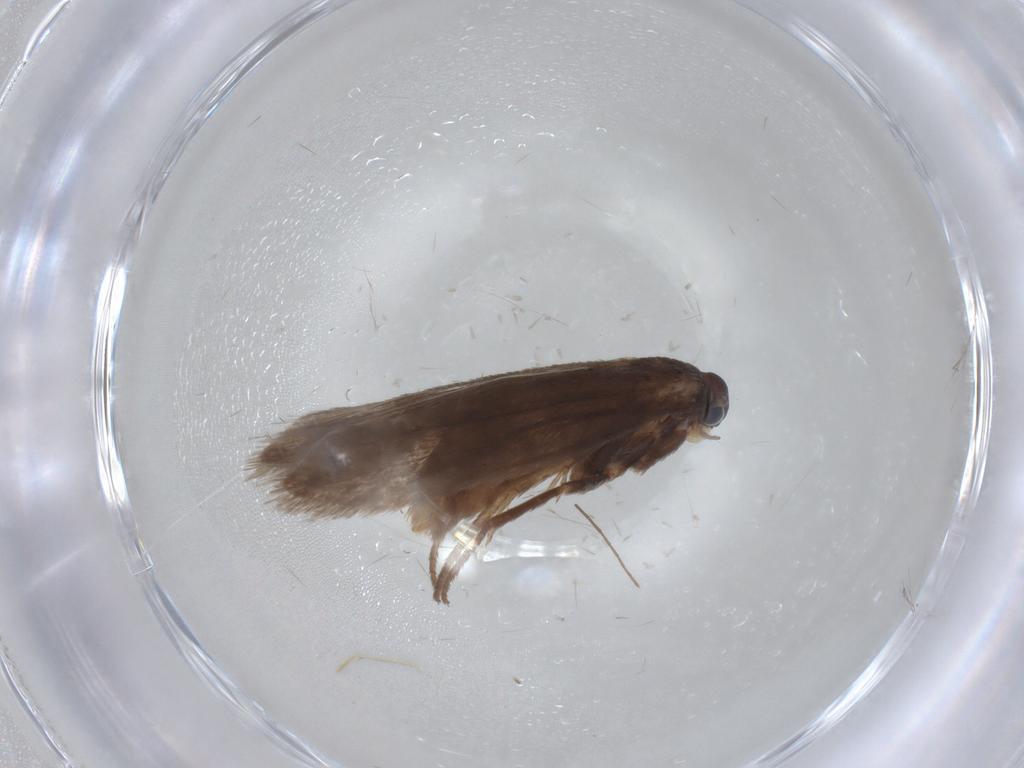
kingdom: Animalia
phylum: Arthropoda
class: Insecta
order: Lepidoptera
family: Limacodidae
